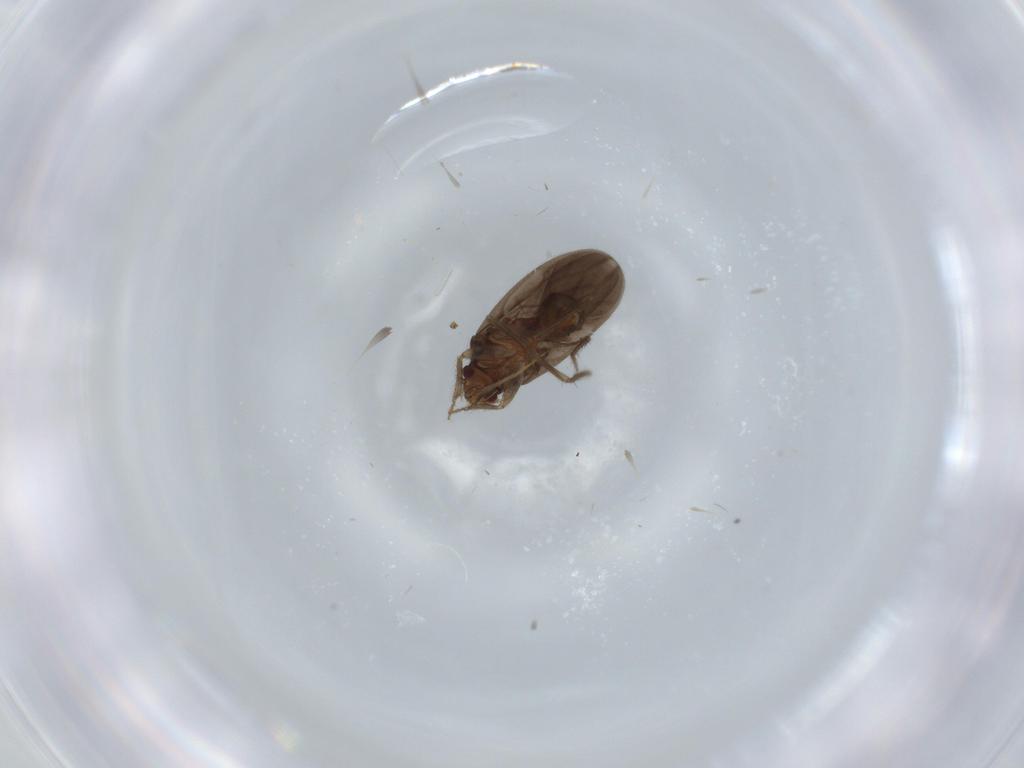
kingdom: Animalia
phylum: Arthropoda
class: Insecta
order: Hemiptera
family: Ceratocombidae
